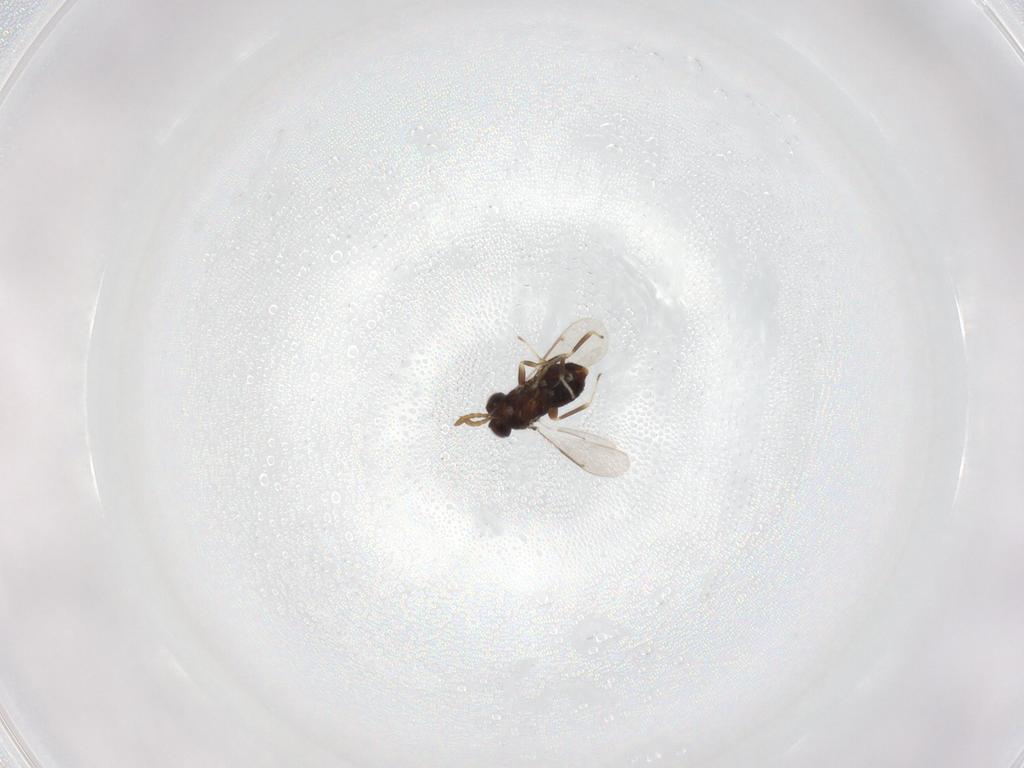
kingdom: Animalia
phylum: Arthropoda
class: Insecta
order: Hymenoptera
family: Aphelinidae
